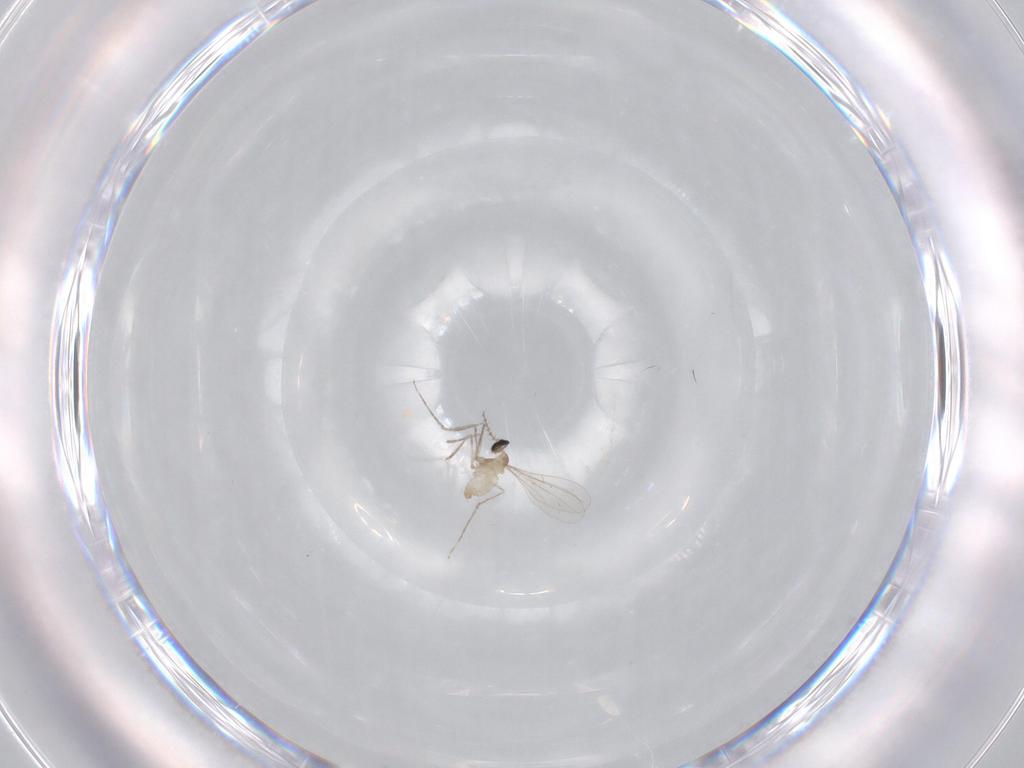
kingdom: Animalia
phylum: Arthropoda
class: Insecta
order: Diptera
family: Cecidomyiidae
